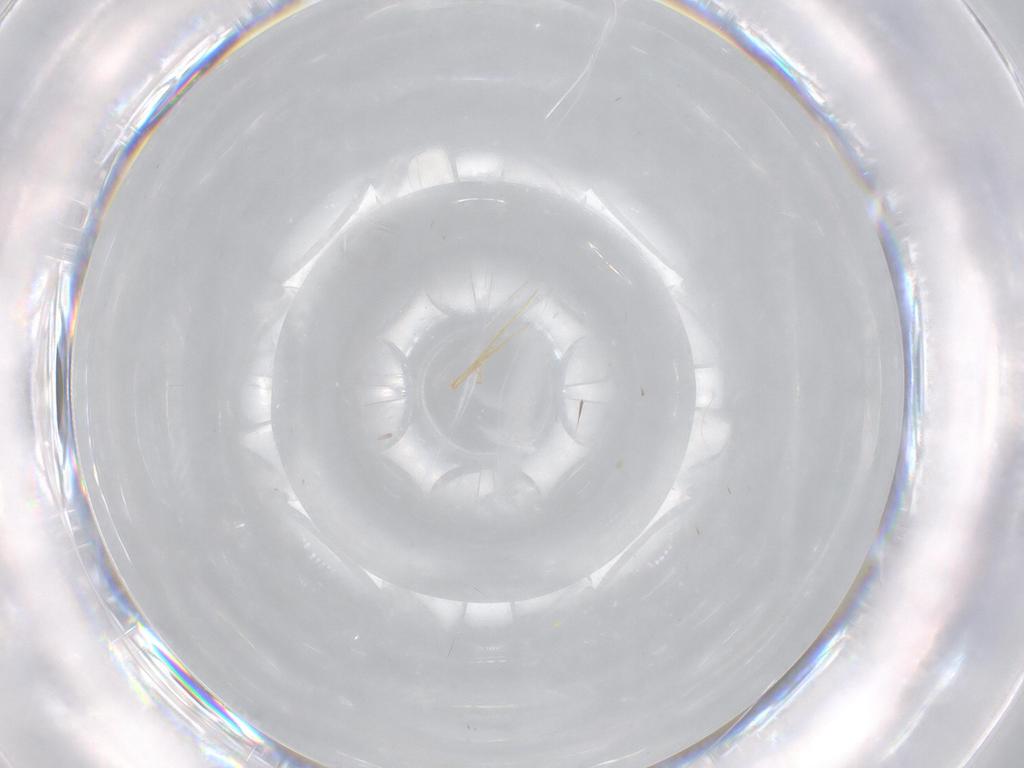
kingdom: Animalia
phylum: Arthropoda
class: Insecta
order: Diptera
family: Phoridae
